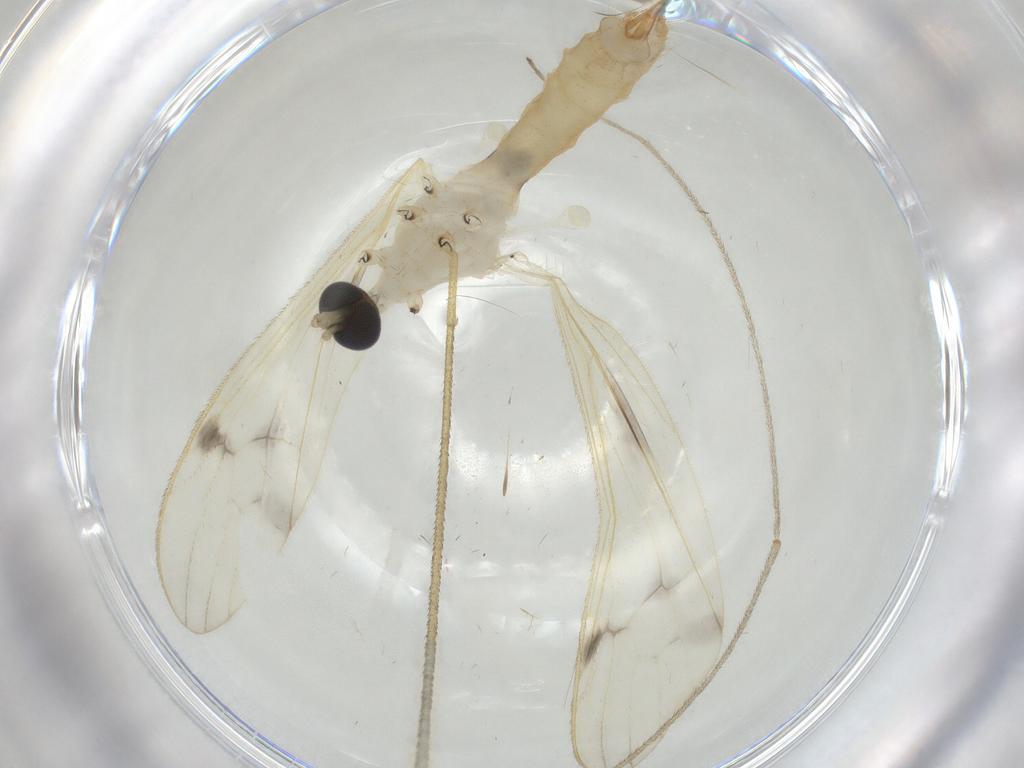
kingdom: Animalia
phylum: Arthropoda
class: Insecta
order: Diptera
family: Limoniidae
